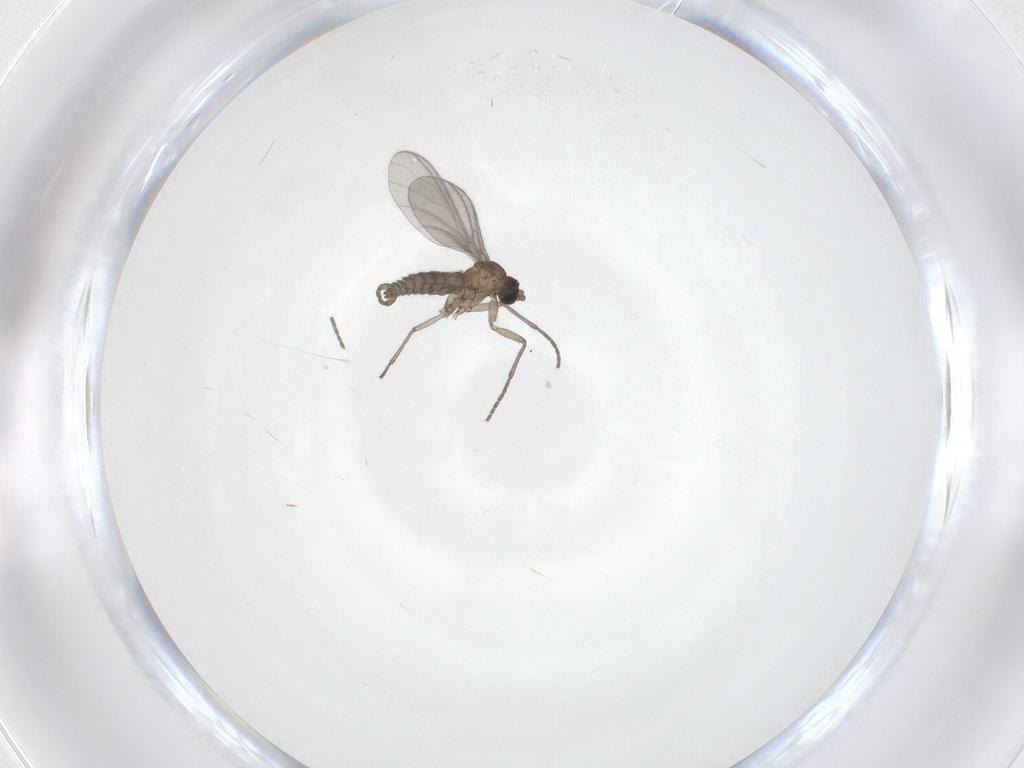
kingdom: Animalia
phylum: Arthropoda
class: Insecta
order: Diptera
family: Sciaridae
